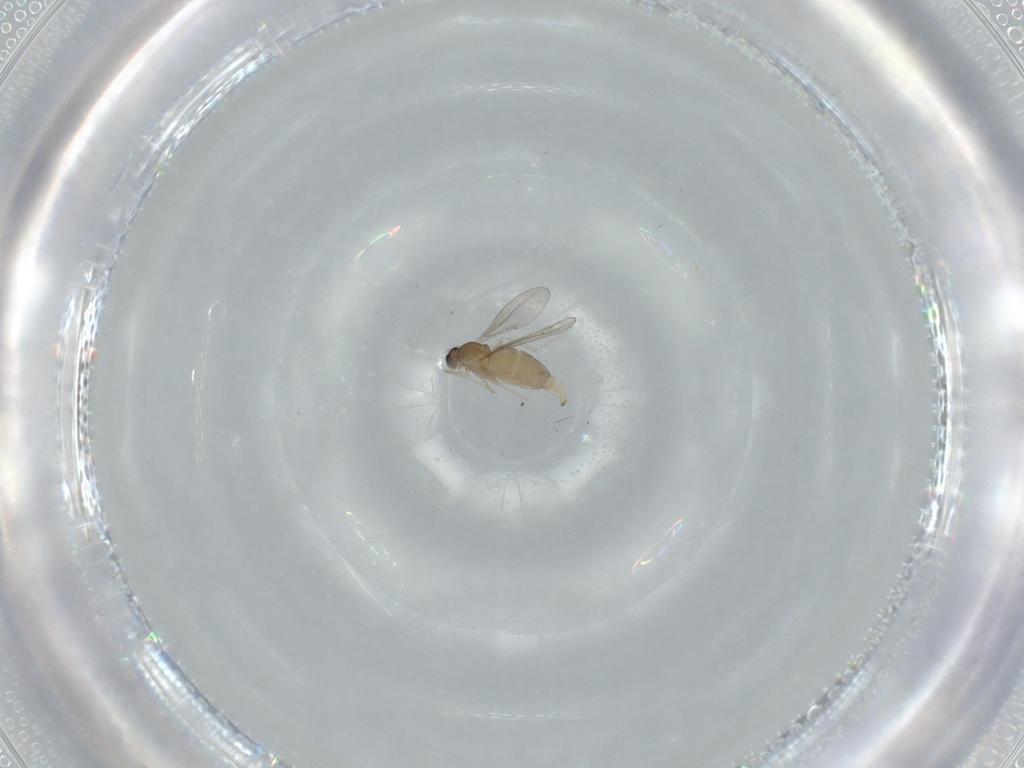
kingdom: Animalia
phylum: Arthropoda
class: Insecta
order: Diptera
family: Cecidomyiidae
